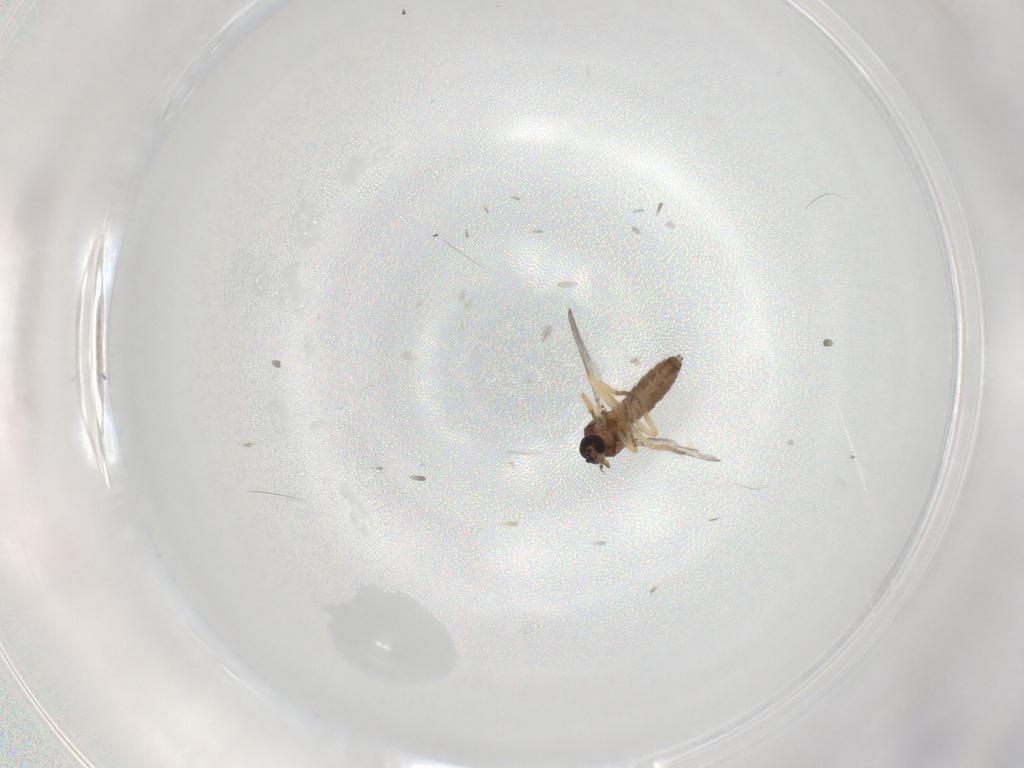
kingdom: Animalia
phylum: Arthropoda
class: Insecta
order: Diptera
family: Ceratopogonidae
